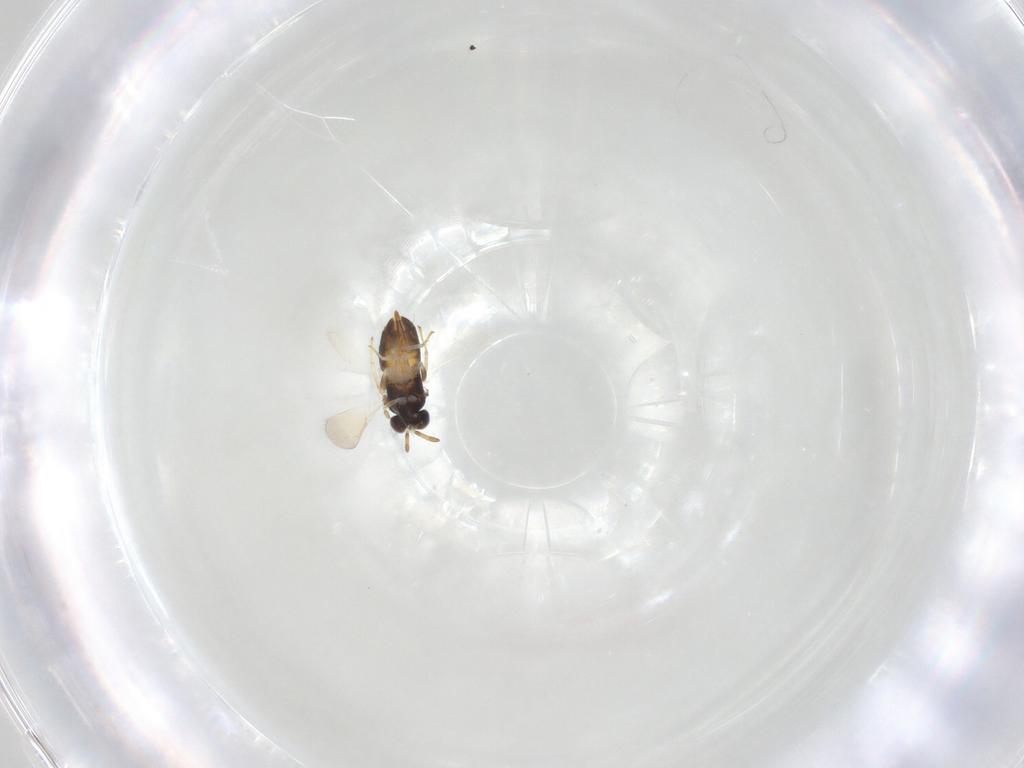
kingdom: Animalia
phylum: Arthropoda
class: Insecta
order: Hymenoptera
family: Aphelinidae
